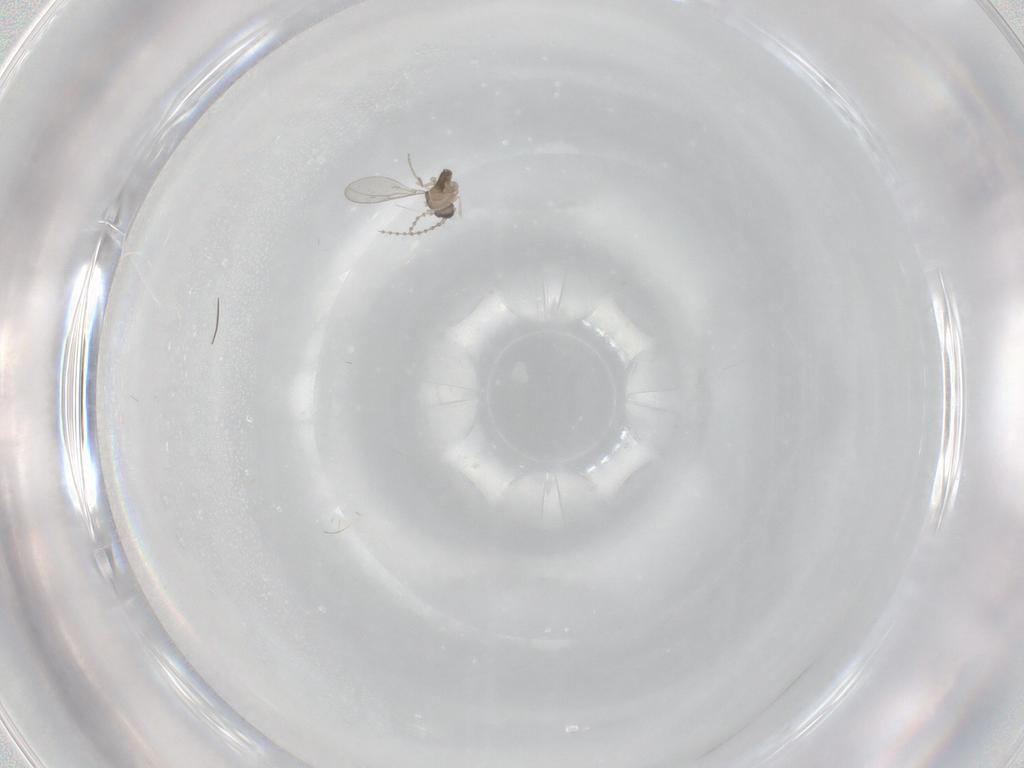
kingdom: Animalia
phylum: Arthropoda
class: Insecta
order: Diptera
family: Cecidomyiidae
